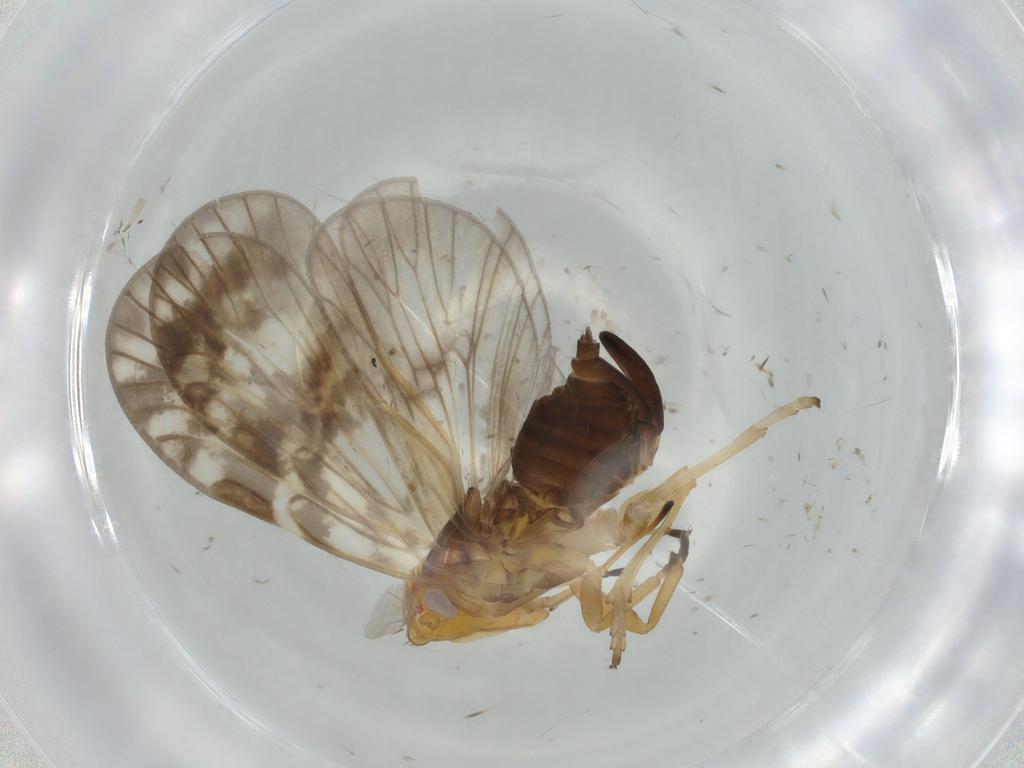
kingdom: Animalia
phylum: Arthropoda
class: Insecta
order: Hemiptera
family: Cixiidae
